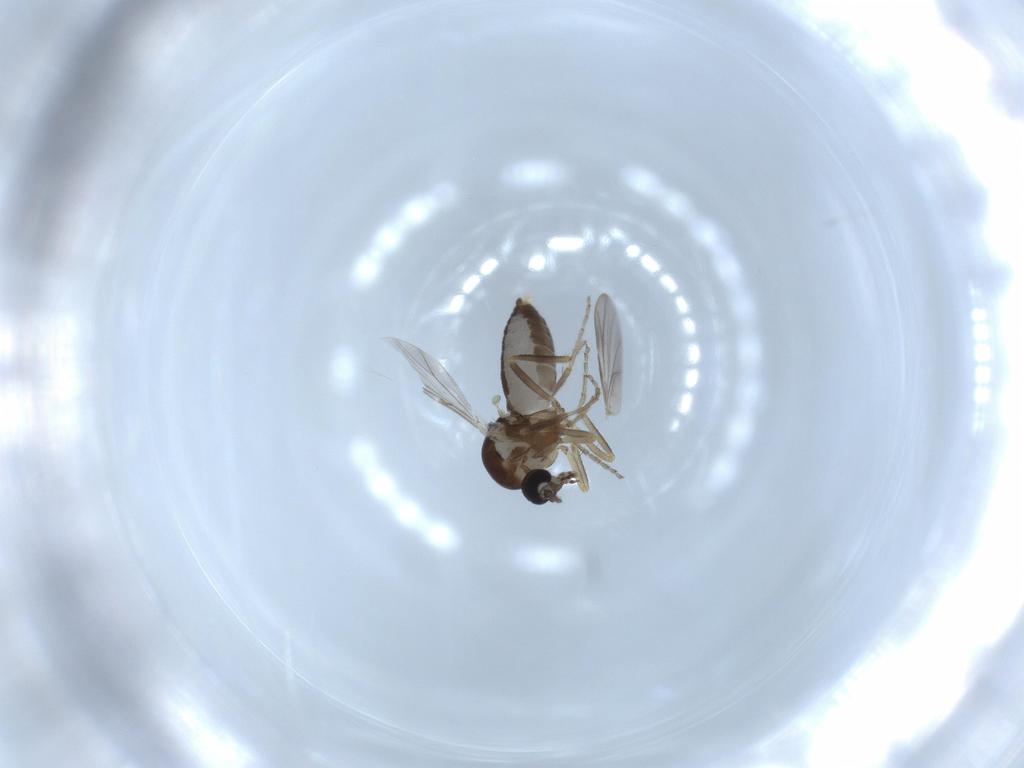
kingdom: Animalia
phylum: Arthropoda
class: Insecta
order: Diptera
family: Ceratopogonidae
